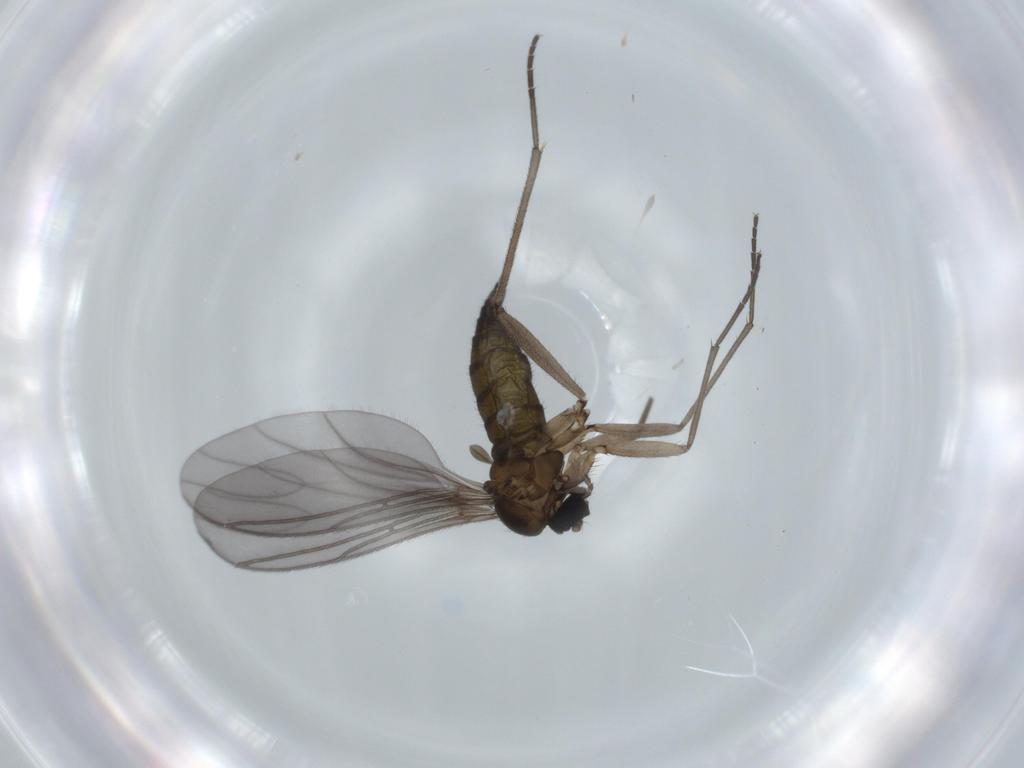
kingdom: Animalia
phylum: Arthropoda
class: Insecta
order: Diptera
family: Sciaridae
